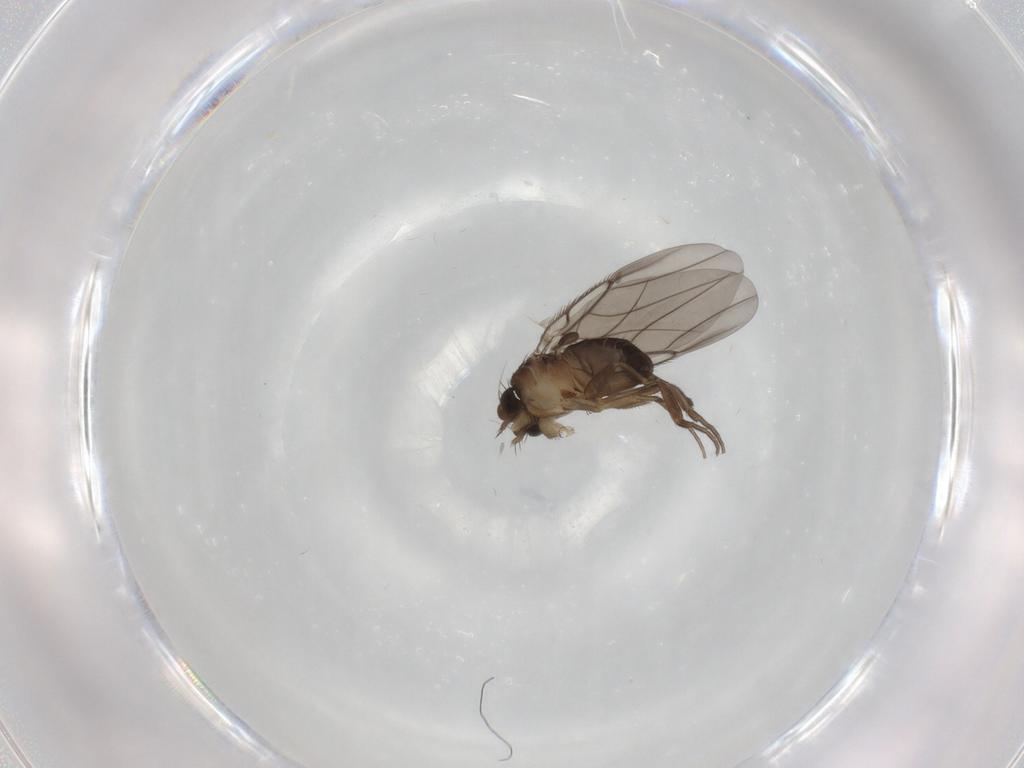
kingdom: Animalia
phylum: Arthropoda
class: Insecta
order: Diptera
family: Phoridae
